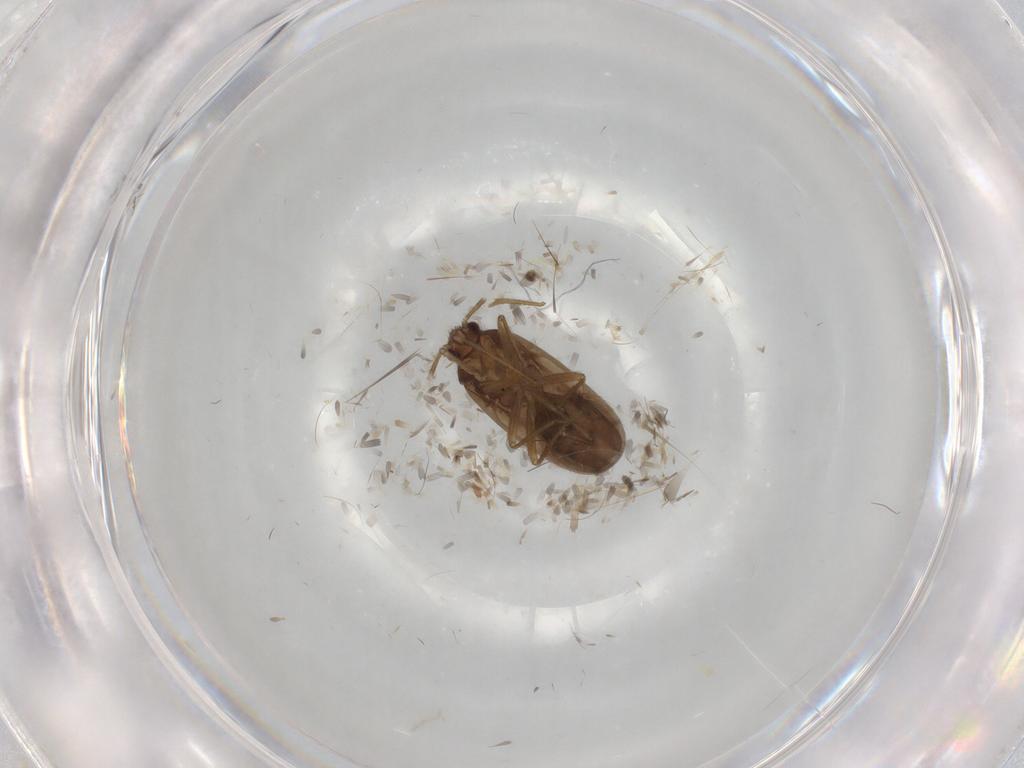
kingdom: Animalia
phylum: Arthropoda
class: Insecta
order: Hemiptera
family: Ceratocombidae
